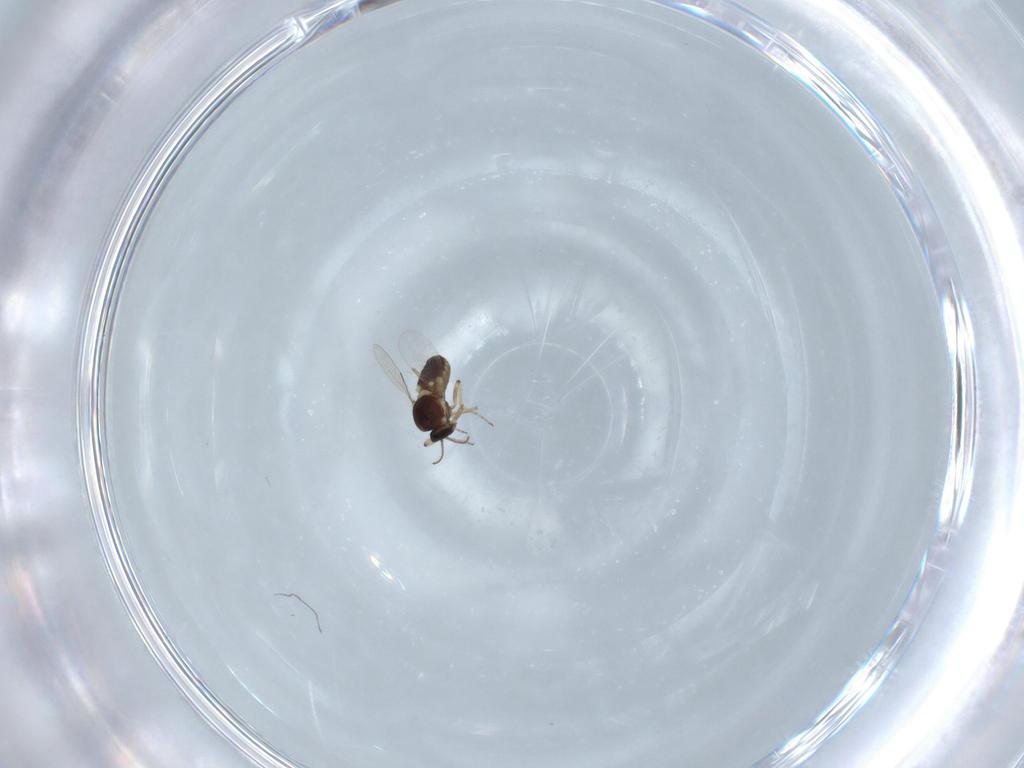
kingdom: Animalia
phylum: Arthropoda
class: Insecta
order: Diptera
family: Ceratopogonidae
